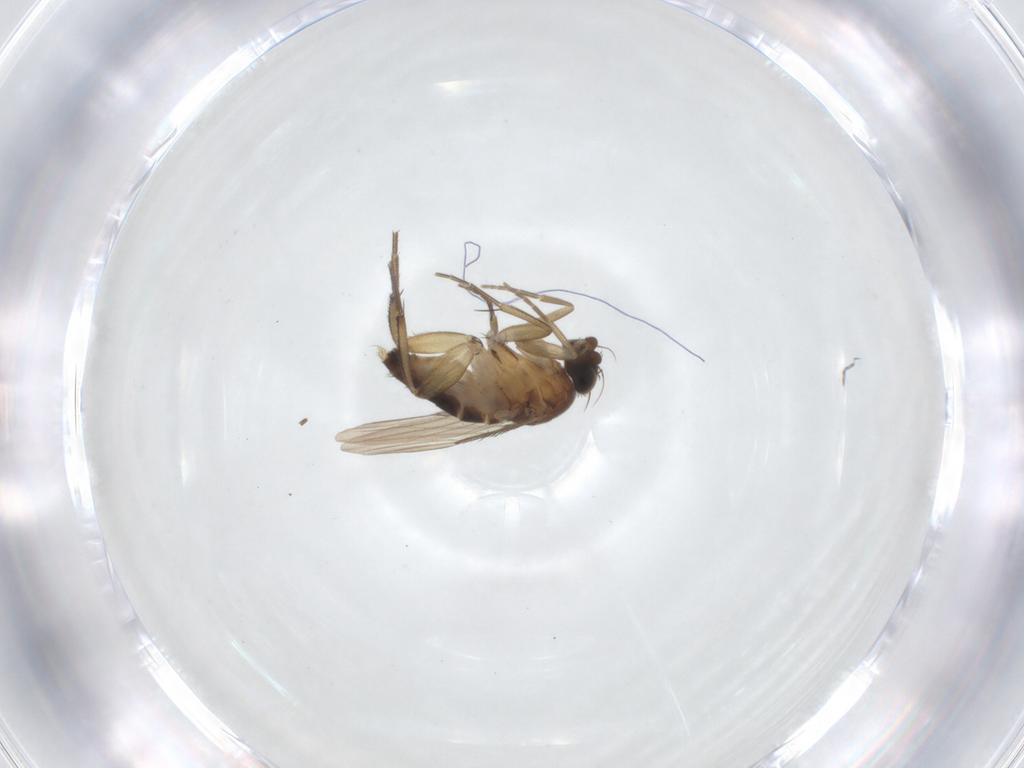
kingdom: Animalia
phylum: Arthropoda
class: Insecta
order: Diptera
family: Phoridae
